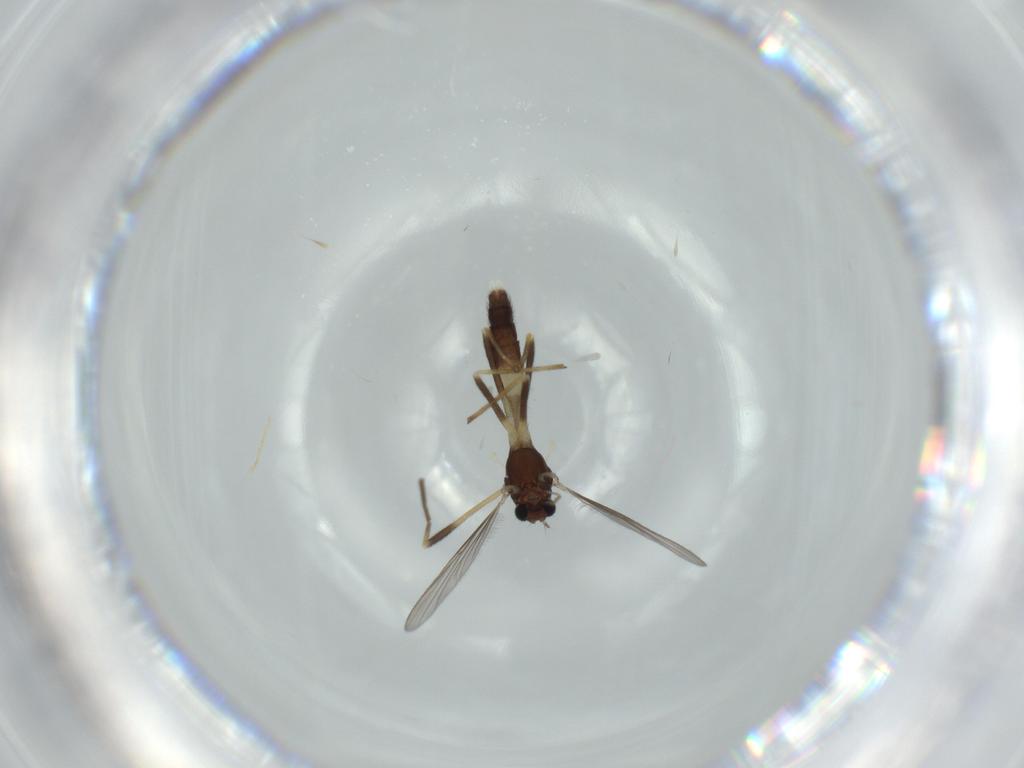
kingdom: Animalia
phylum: Arthropoda
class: Insecta
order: Diptera
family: Chironomidae
